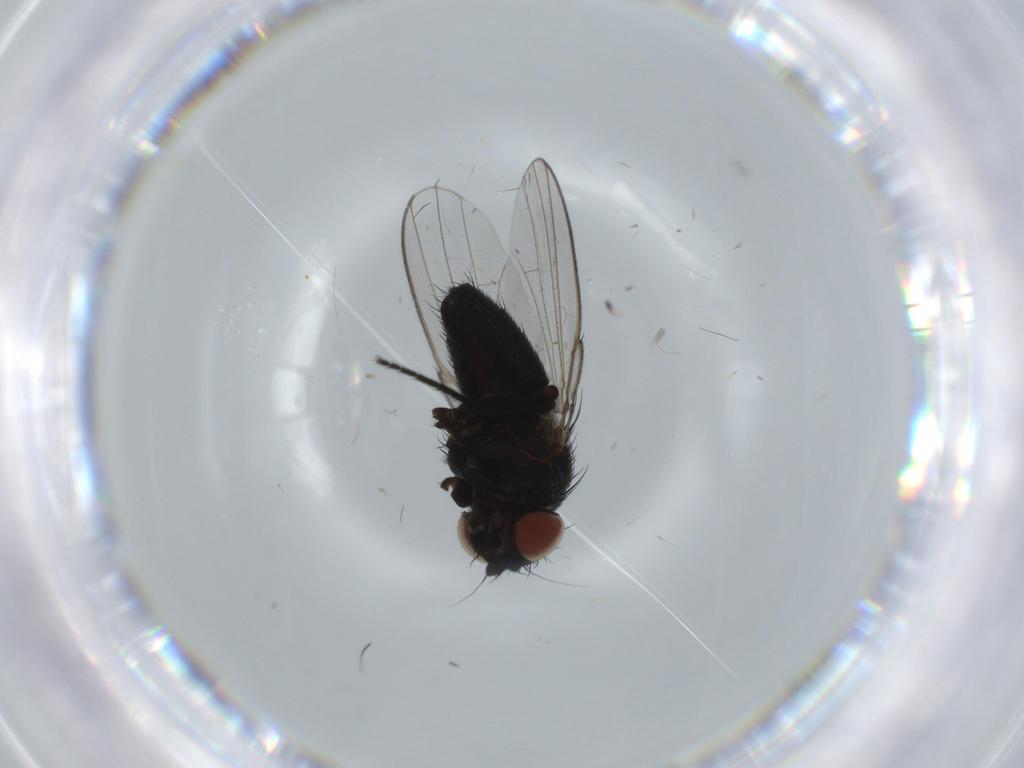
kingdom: Animalia
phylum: Arthropoda
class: Insecta
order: Diptera
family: Milichiidae
